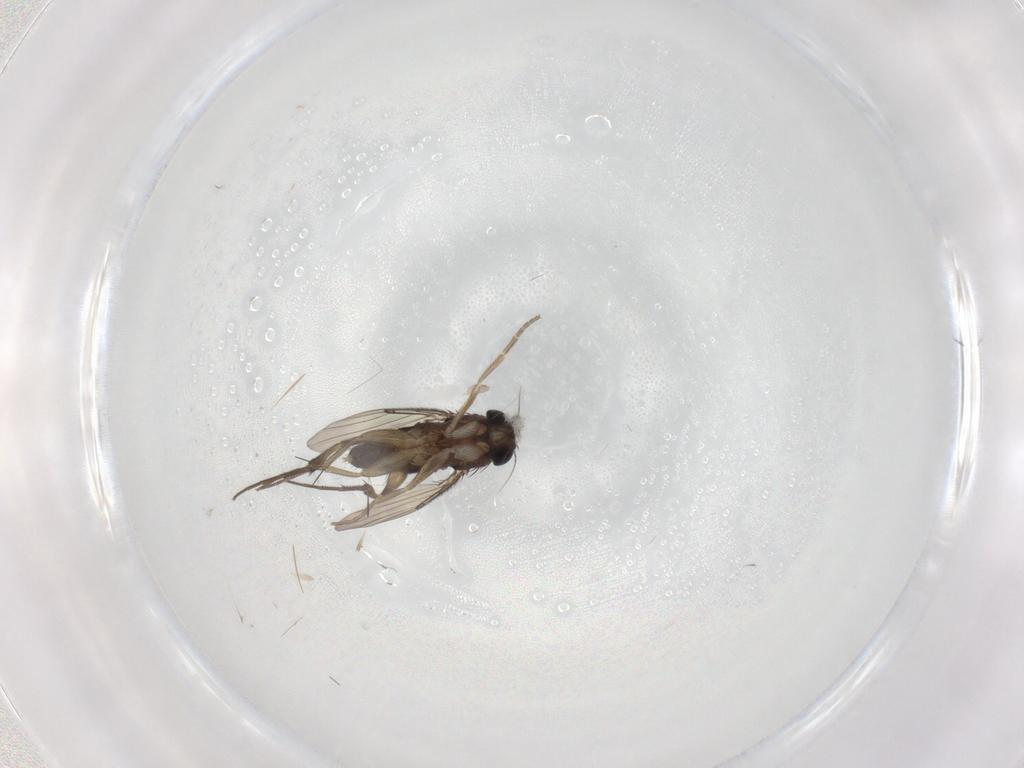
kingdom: Animalia
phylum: Arthropoda
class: Insecta
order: Diptera
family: Phoridae
